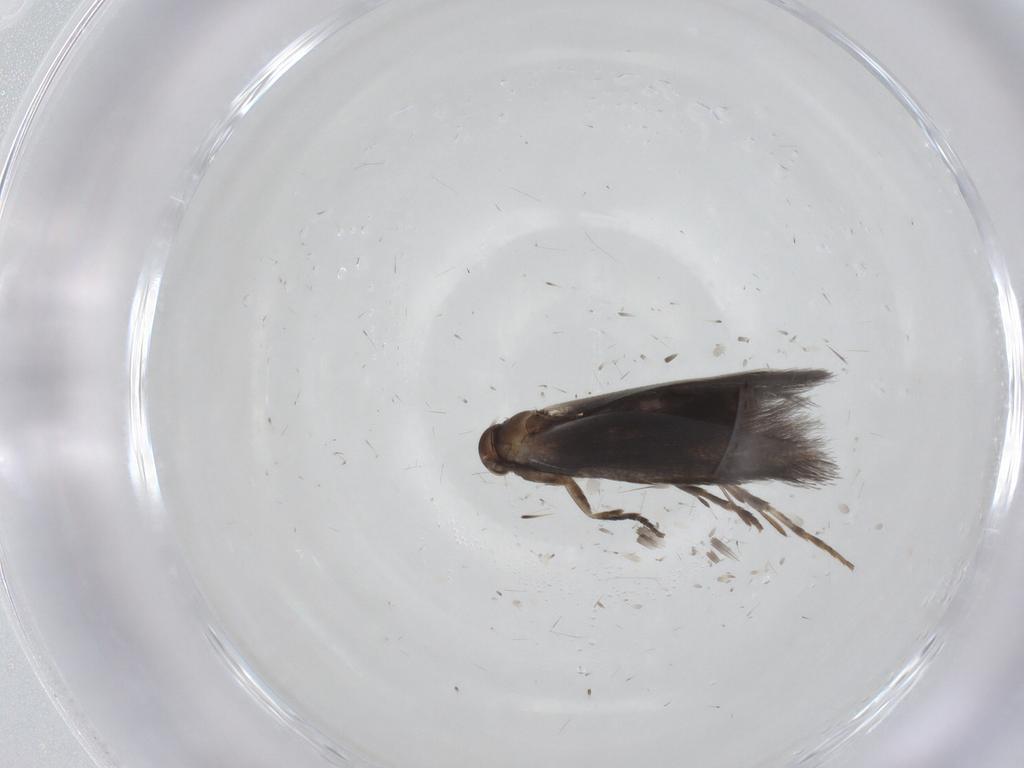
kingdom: Animalia
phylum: Arthropoda
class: Insecta
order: Lepidoptera
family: Elachistidae
